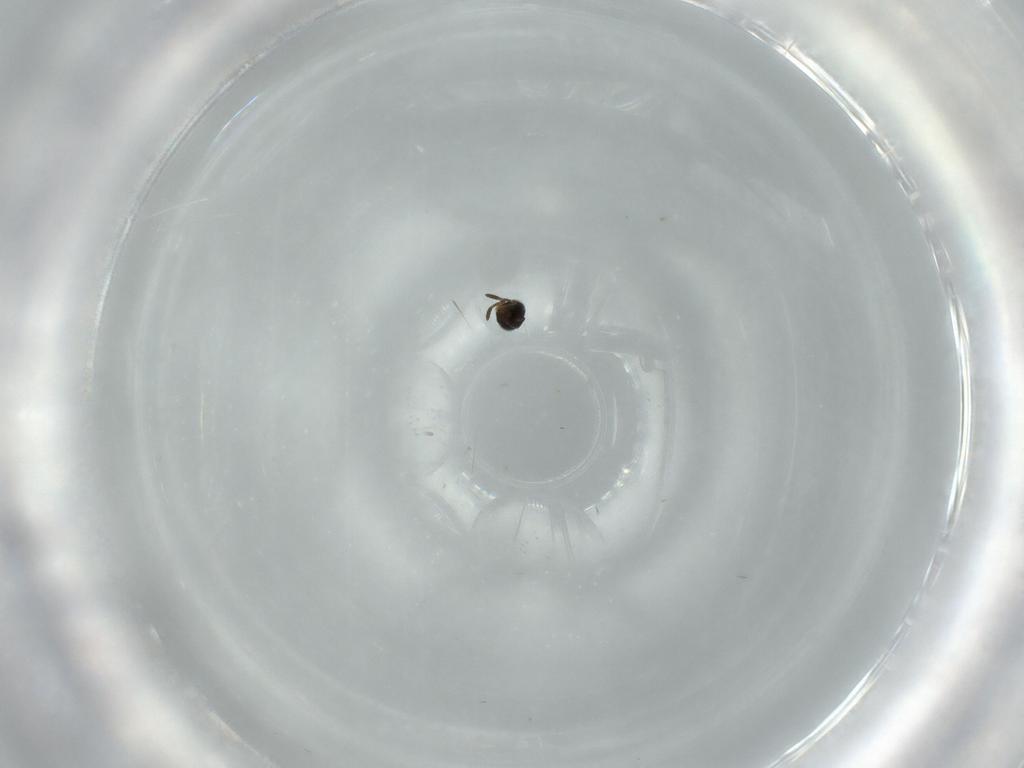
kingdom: Animalia
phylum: Arthropoda
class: Insecta
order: Hymenoptera
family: Scelionidae
